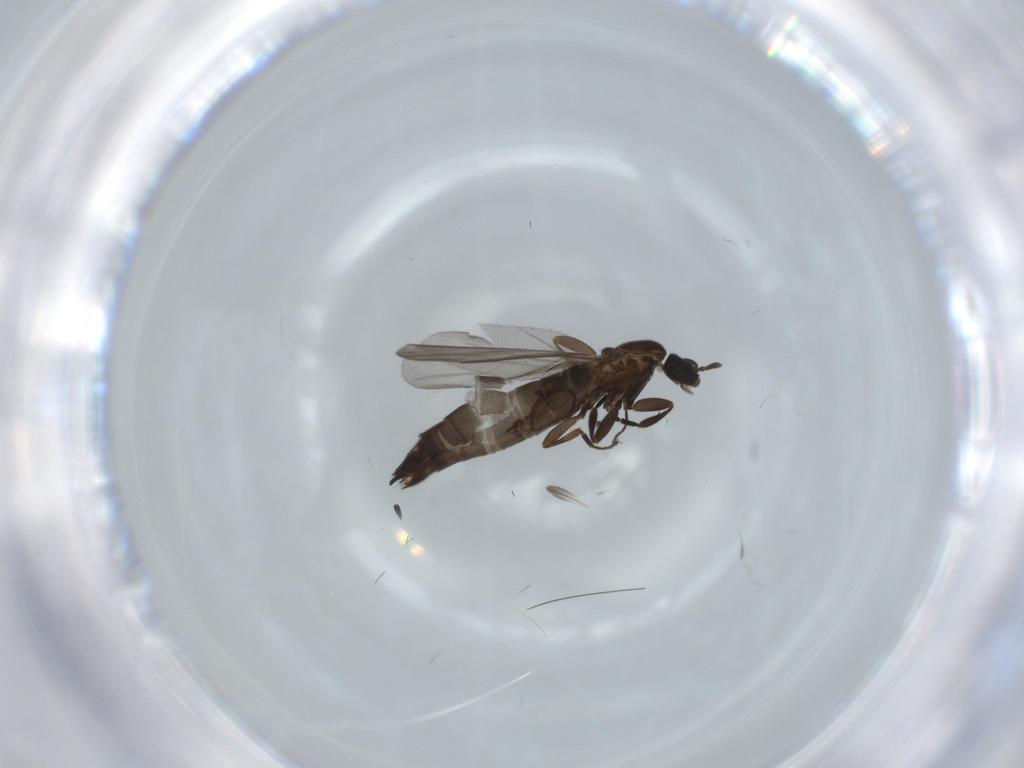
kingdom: Animalia
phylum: Arthropoda
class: Insecta
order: Diptera
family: Scatopsidae
